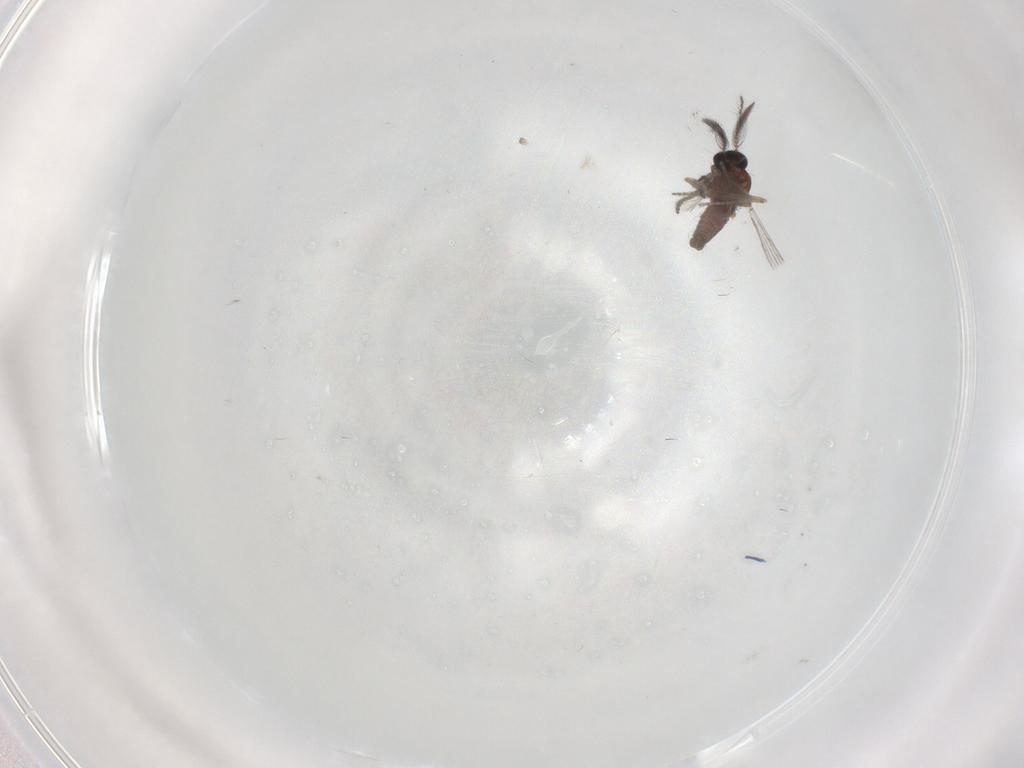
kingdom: Animalia
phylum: Arthropoda
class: Insecta
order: Diptera
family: Ceratopogonidae
